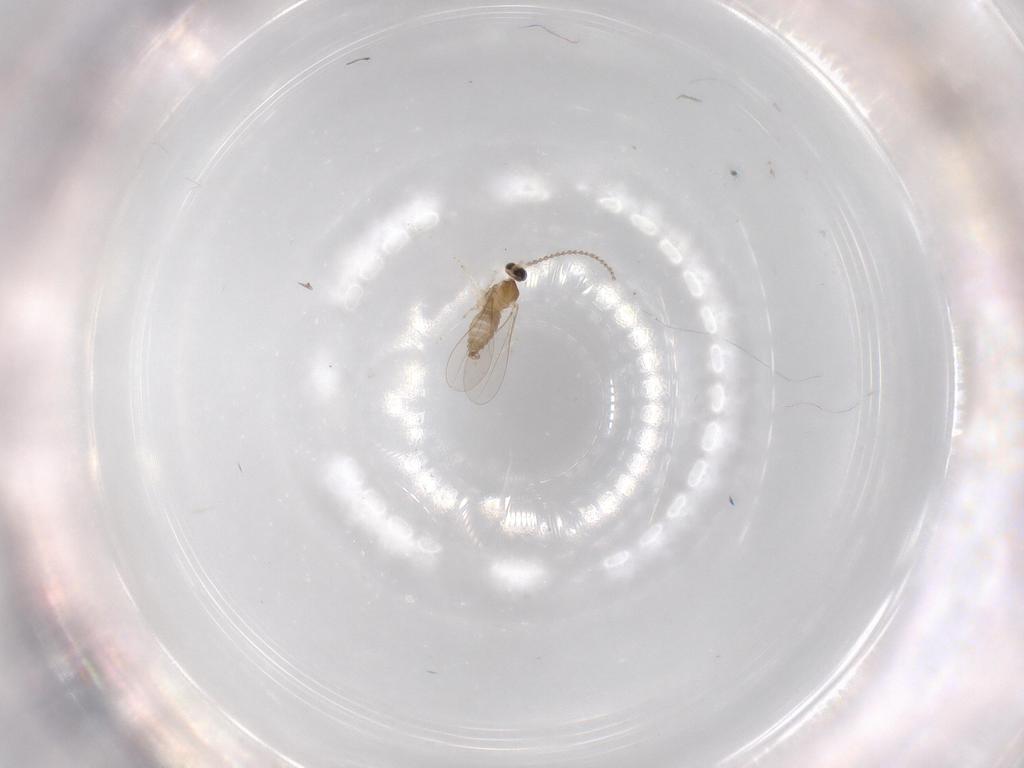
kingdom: Animalia
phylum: Arthropoda
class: Insecta
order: Diptera
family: Cecidomyiidae
